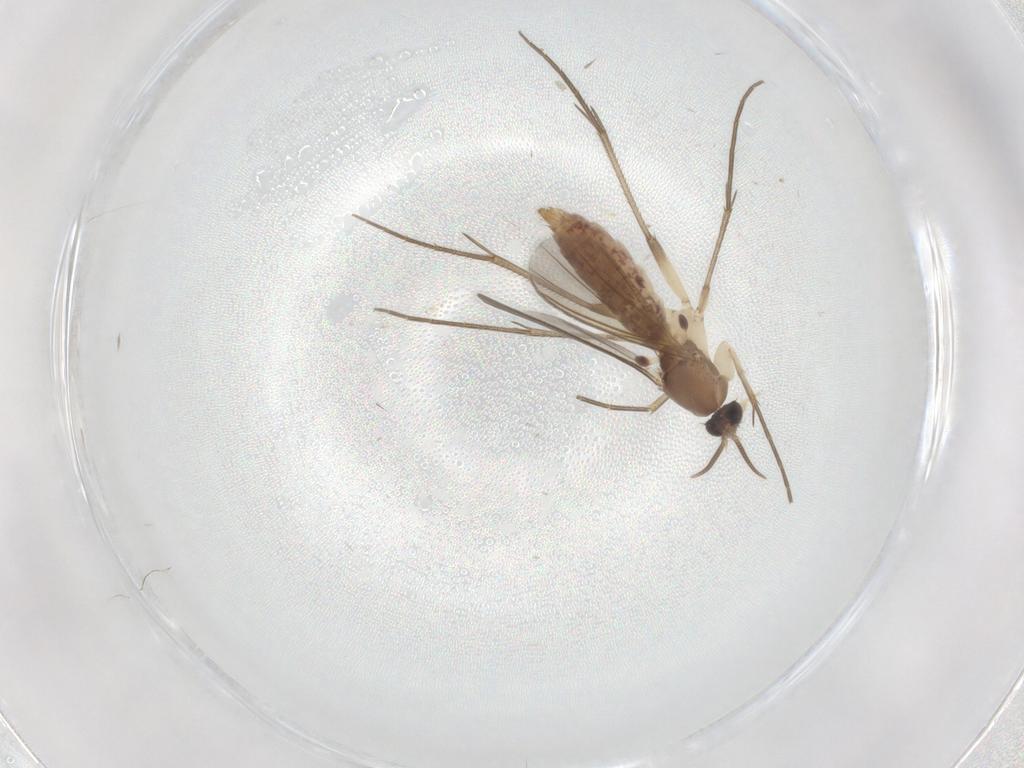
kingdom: Animalia
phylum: Arthropoda
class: Insecta
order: Diptera
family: Mycetophilidae
